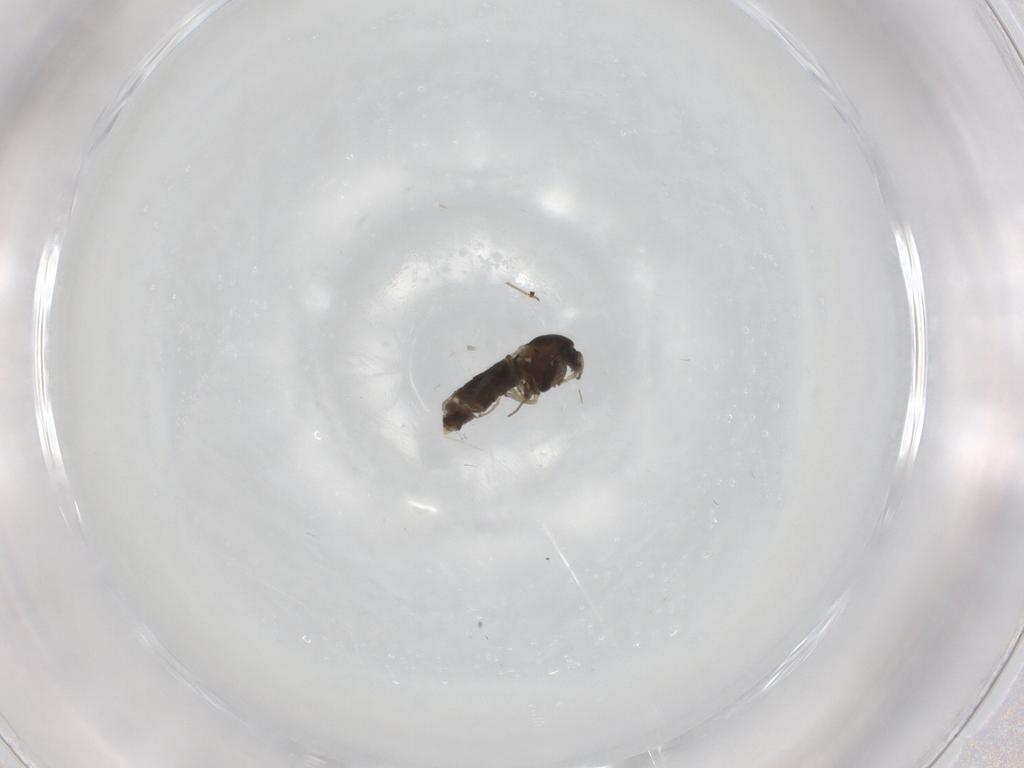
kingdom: Animalia
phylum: Arthropoda
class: Insecta
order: Diptera
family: Chironomidae
